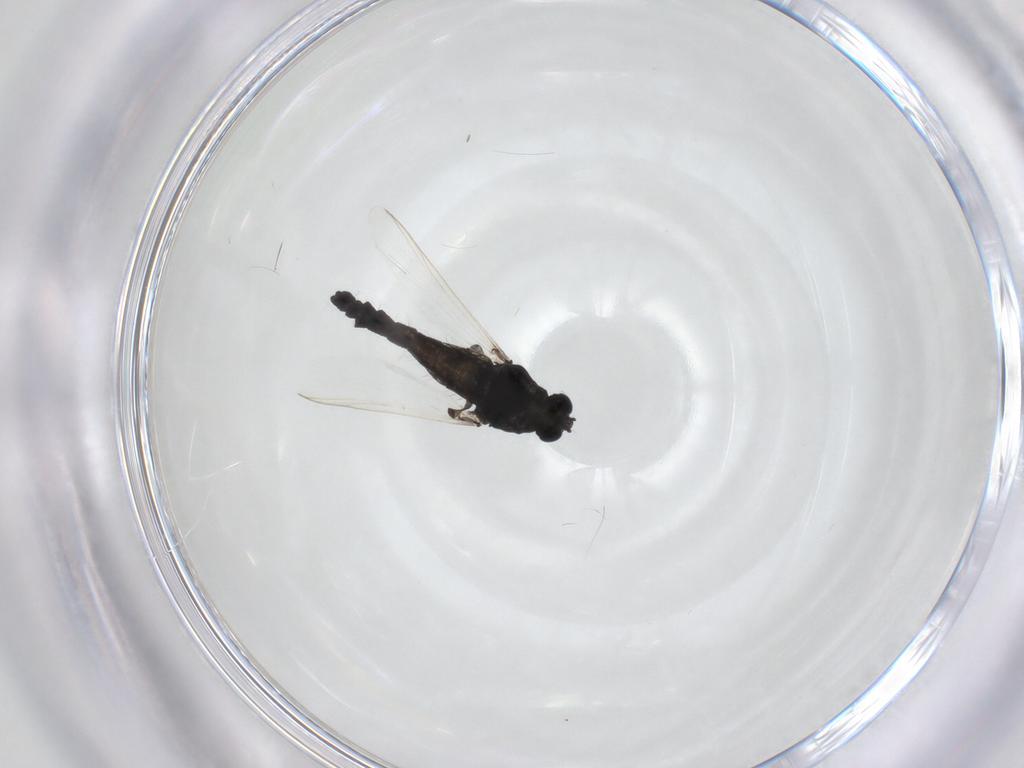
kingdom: Animalia
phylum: Arthropoda
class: Insecta
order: Diptera
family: Chironomidae
